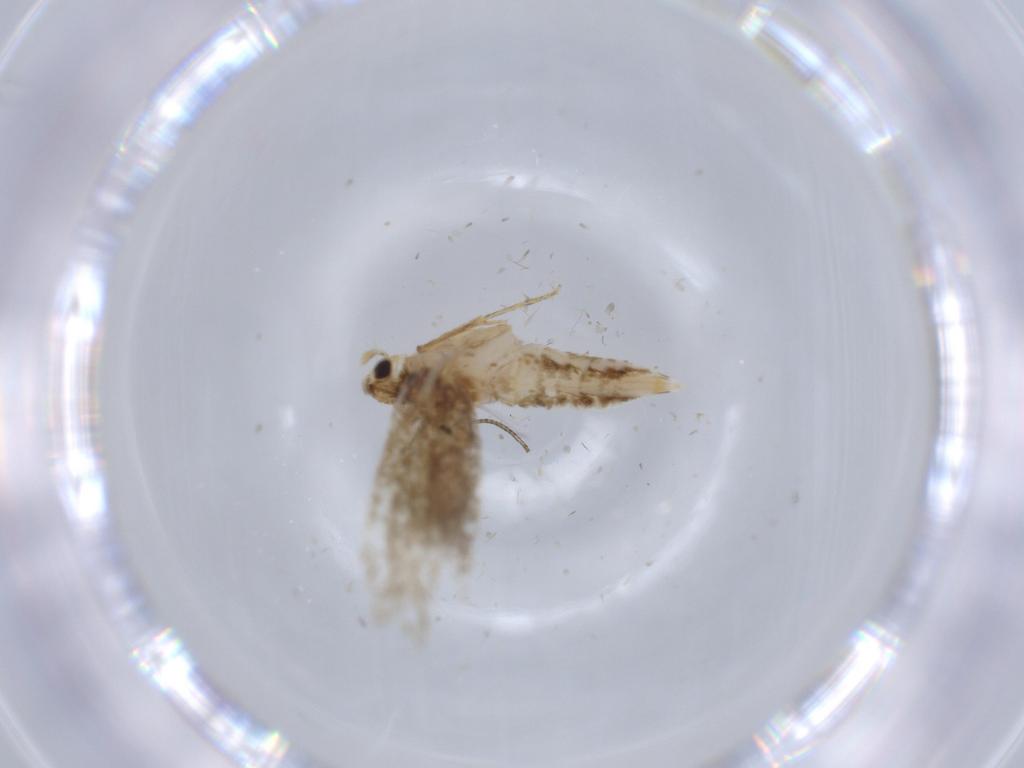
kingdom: Animalia
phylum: Arthropoda
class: Insecta
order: Lepidoptera
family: Tineidae
